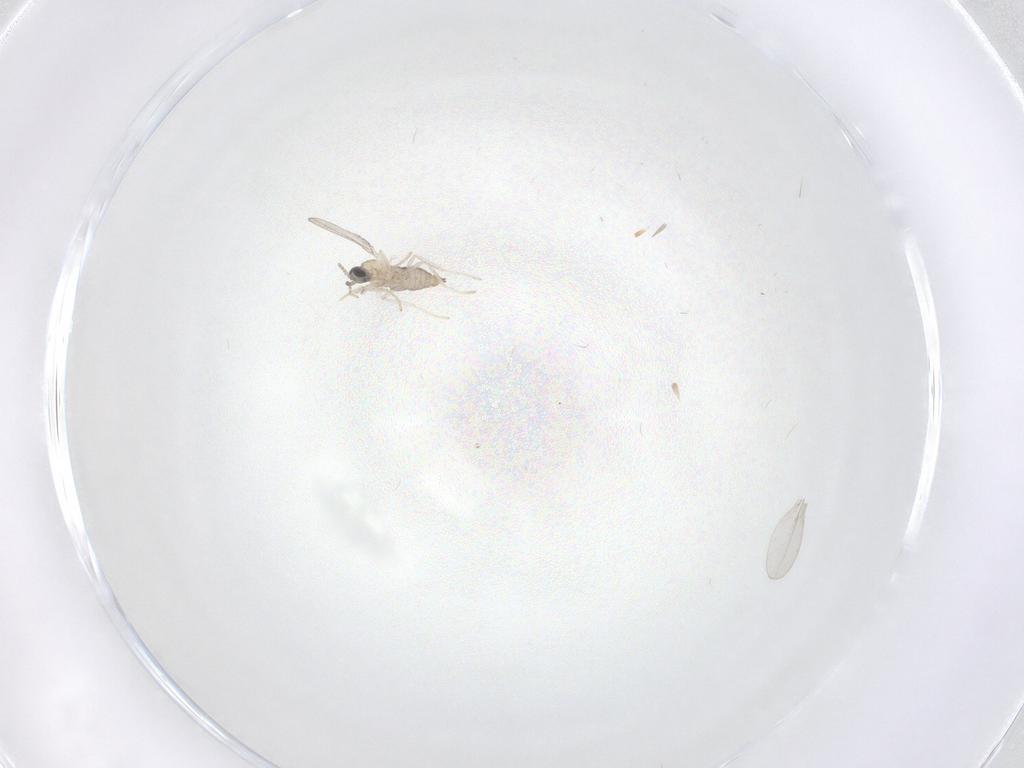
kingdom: Animalia
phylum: Arthropoda
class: Insecta
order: Diptera
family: Cecidomyiidae
